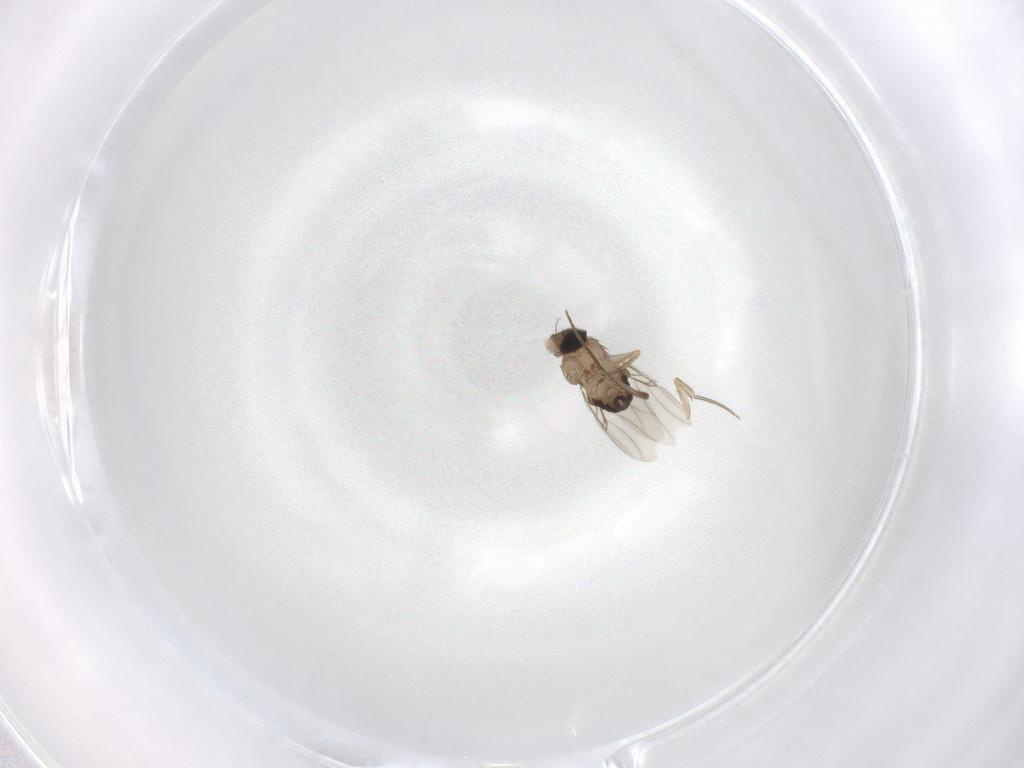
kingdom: Animalia
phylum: Arthropoda
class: Insecta
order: Diptera
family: Phoridae
